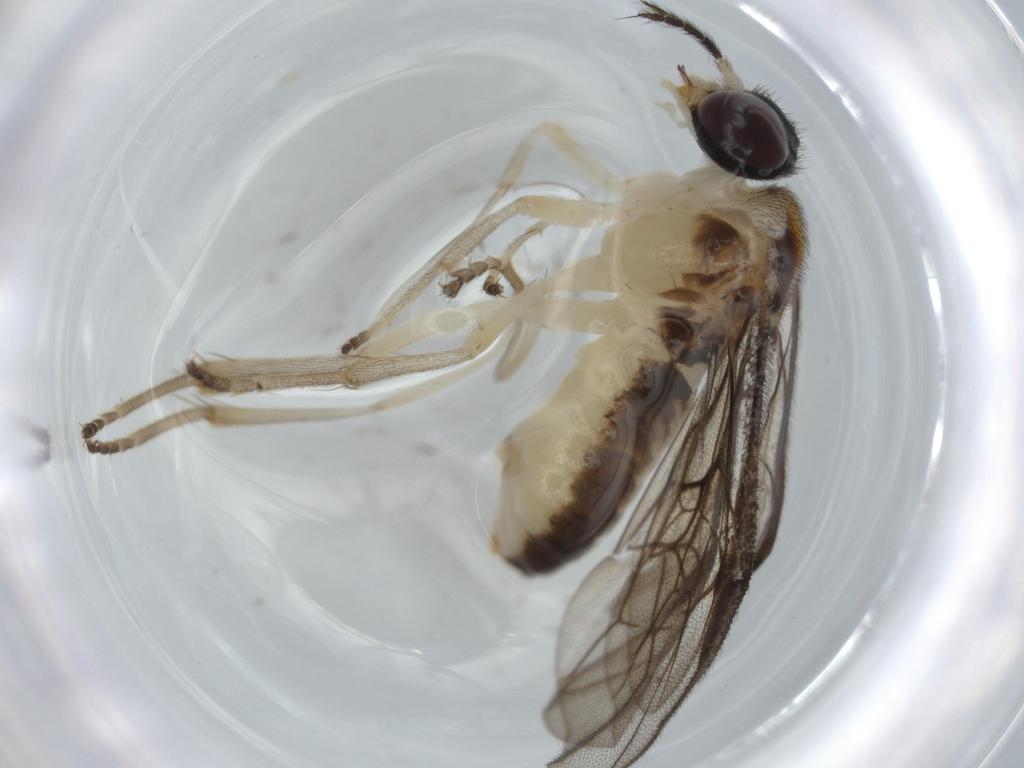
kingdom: Animalia
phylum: Arthropoda
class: Insecta
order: Hymenoptera
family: Pergidae
